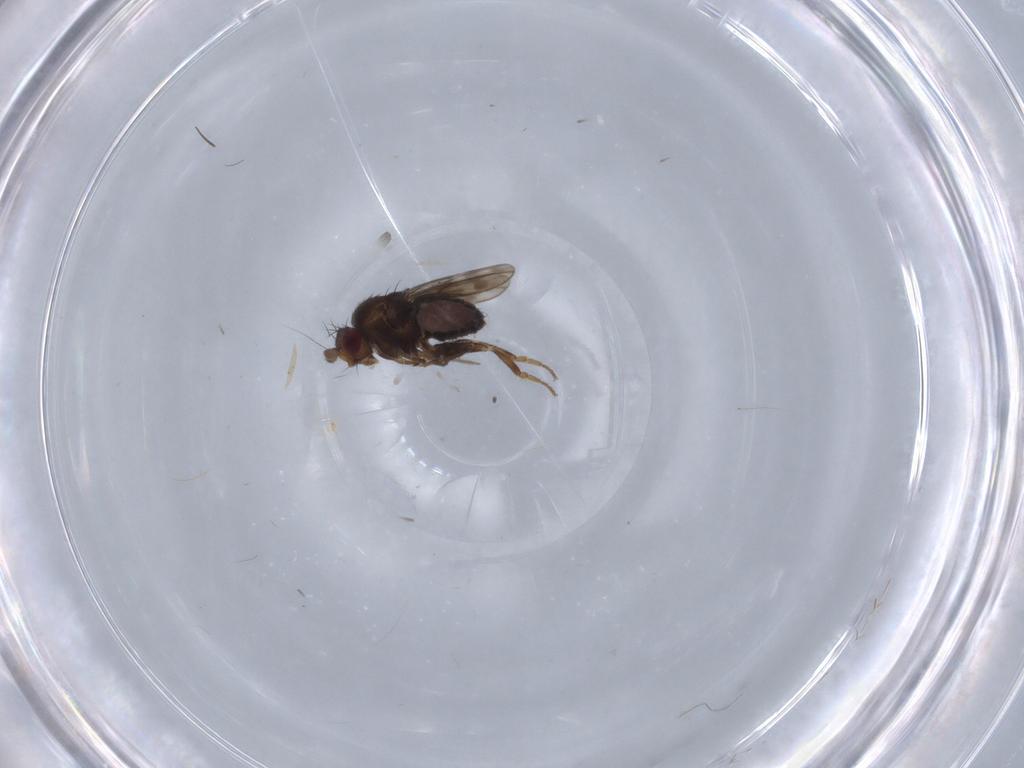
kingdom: Animalia
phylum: Arthropoda
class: Insecta
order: Diptera
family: Sphaeroceridae
